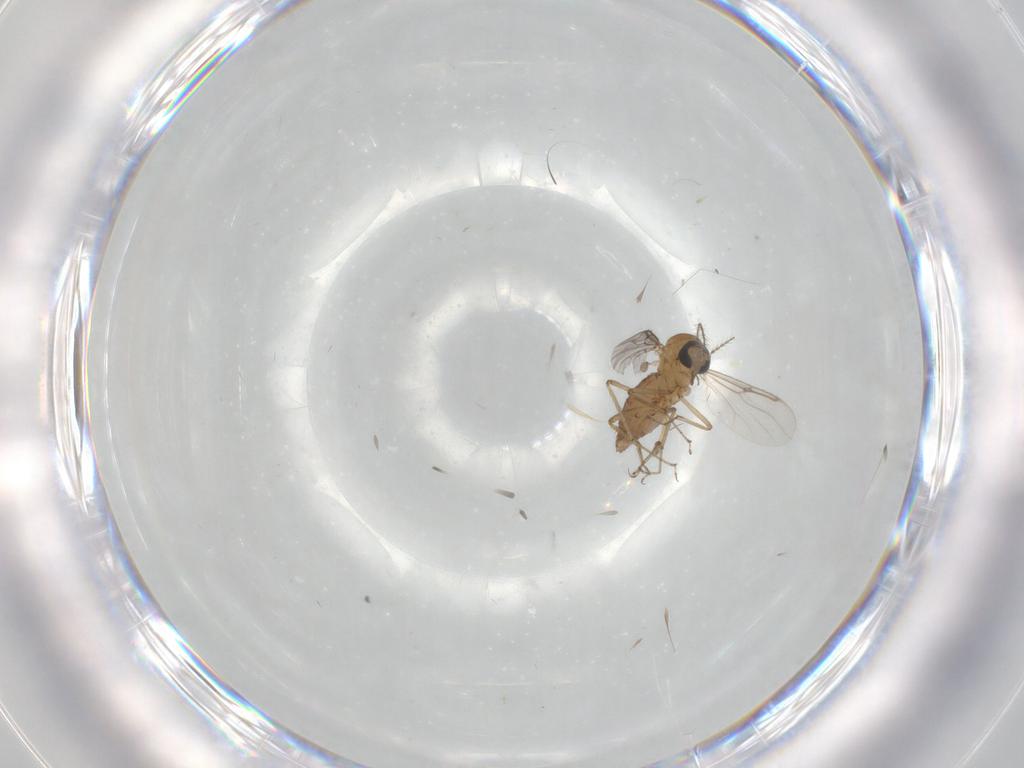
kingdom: Animalia
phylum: Arthropoda
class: Insecta
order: Diptera
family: Ceratopogonidae
